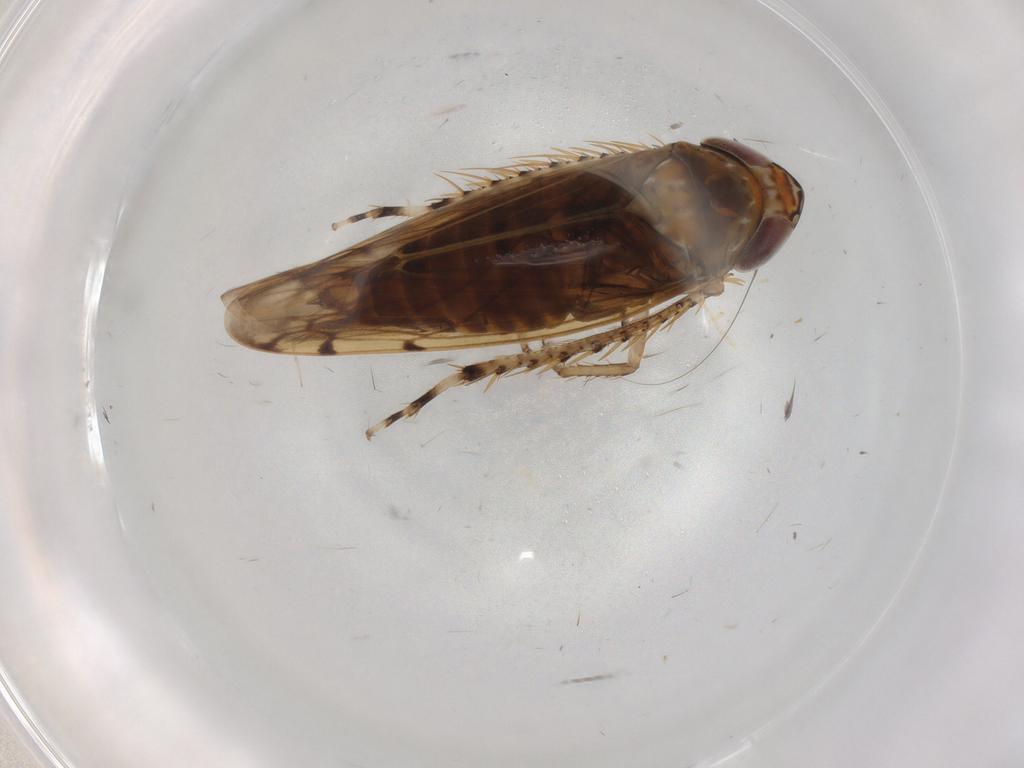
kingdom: Animalia
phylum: Arthropoda
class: Insecta
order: Hemiptera
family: Cicadellidae
